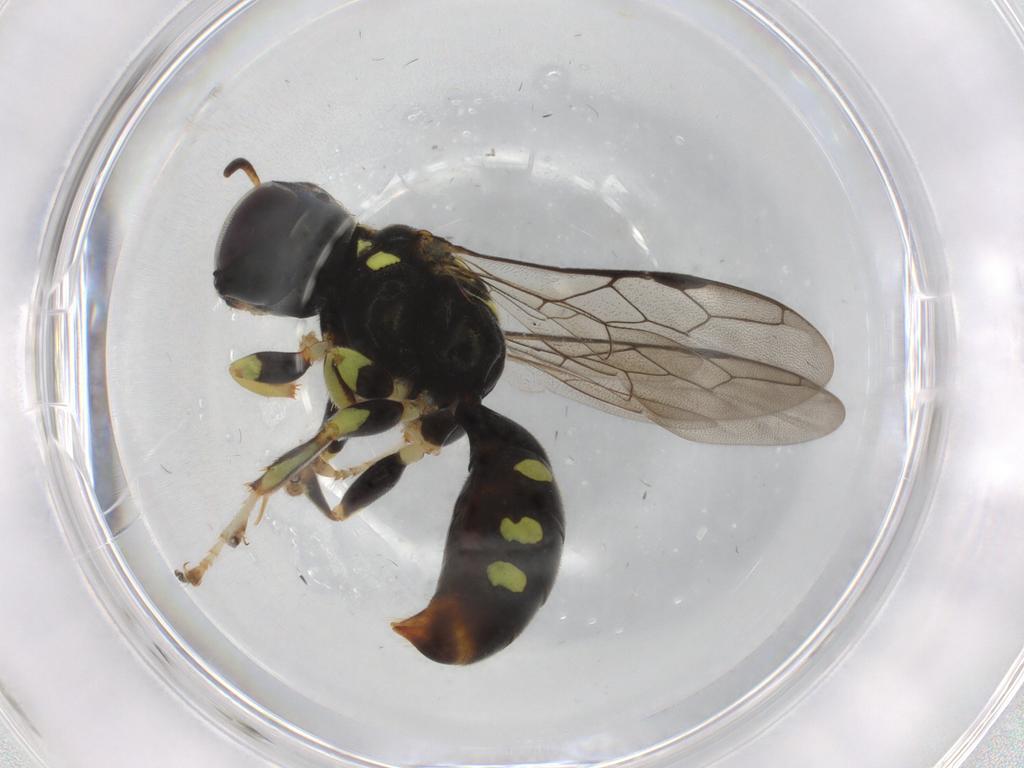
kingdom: Animalia
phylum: Arthropoda
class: Insecta
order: Hymenoptera
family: Crabronidae
